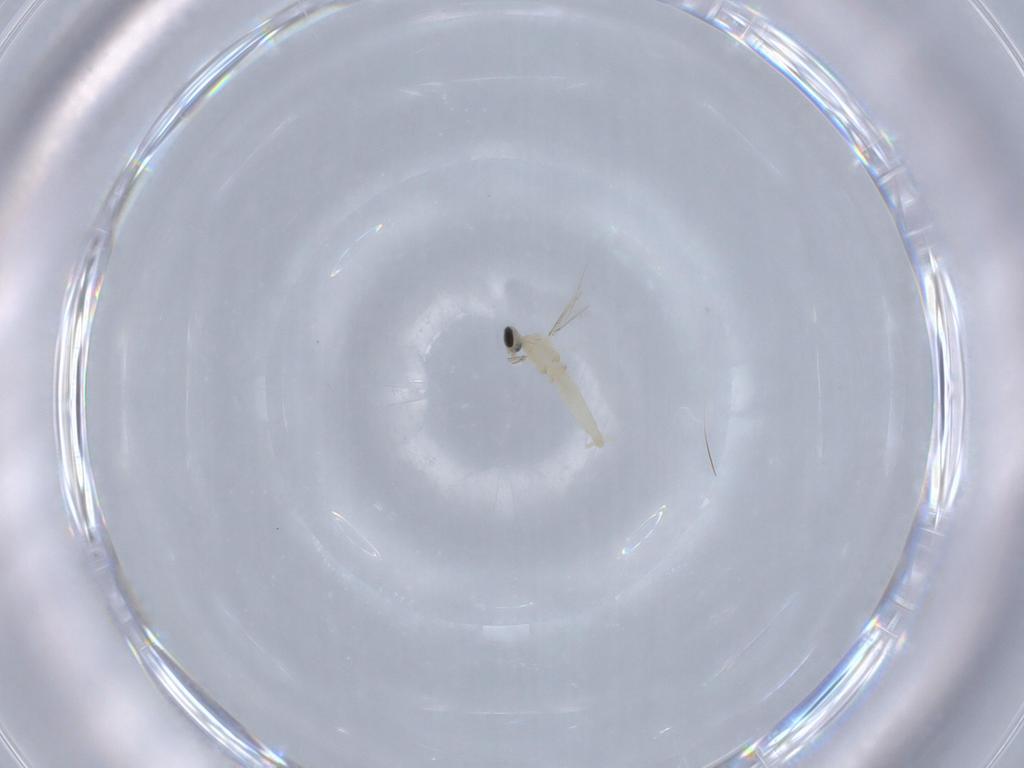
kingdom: Animalia
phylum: Arthropoda
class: Insecta
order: Diptera
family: Cecidomyiidae
